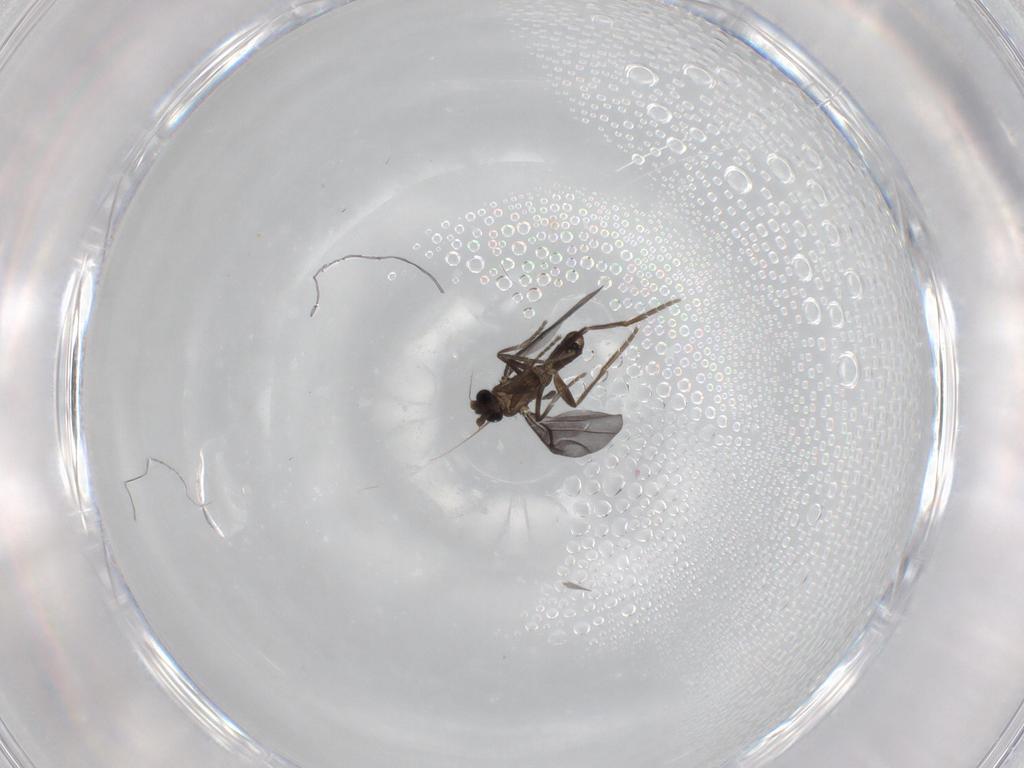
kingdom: Animalia
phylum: Arthropoda
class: Insecta
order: Diptera
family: Phoridae
